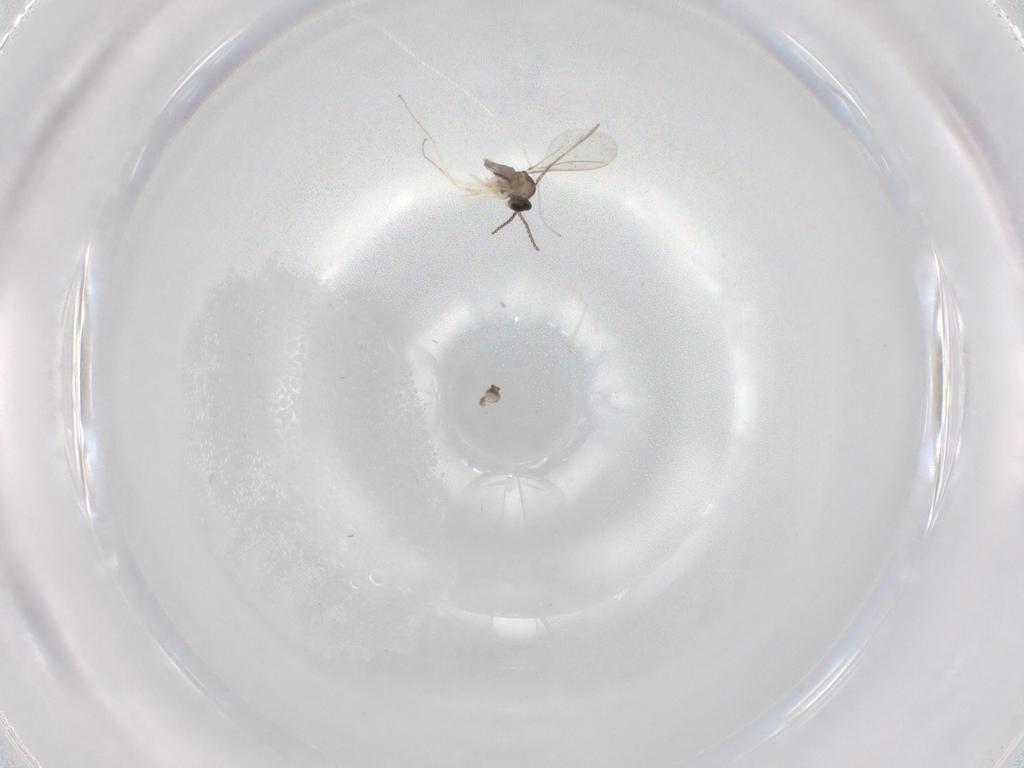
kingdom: Animalia
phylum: Arthropoda
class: Insecta
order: Diptera
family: Cecidomyiidae
